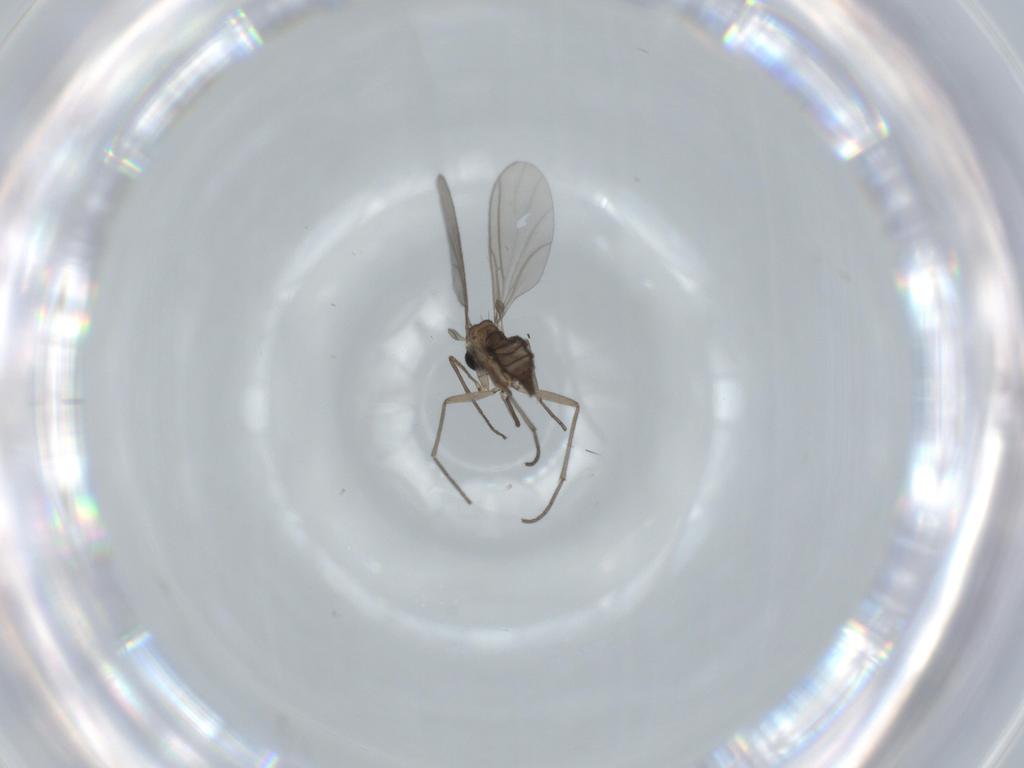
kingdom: Animalia
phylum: Arthropoda
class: Insecta
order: Diptera
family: Sciaridae
